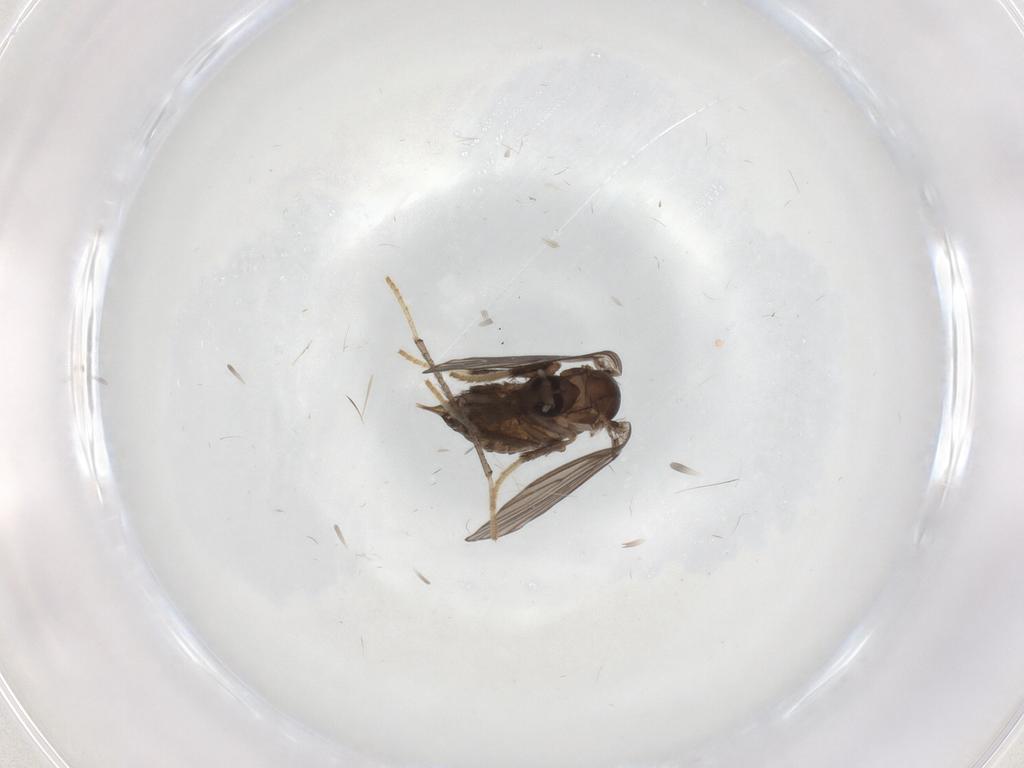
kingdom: Animalia
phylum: Arthropoda
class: Insecta
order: Diptera
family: Psychodidae
